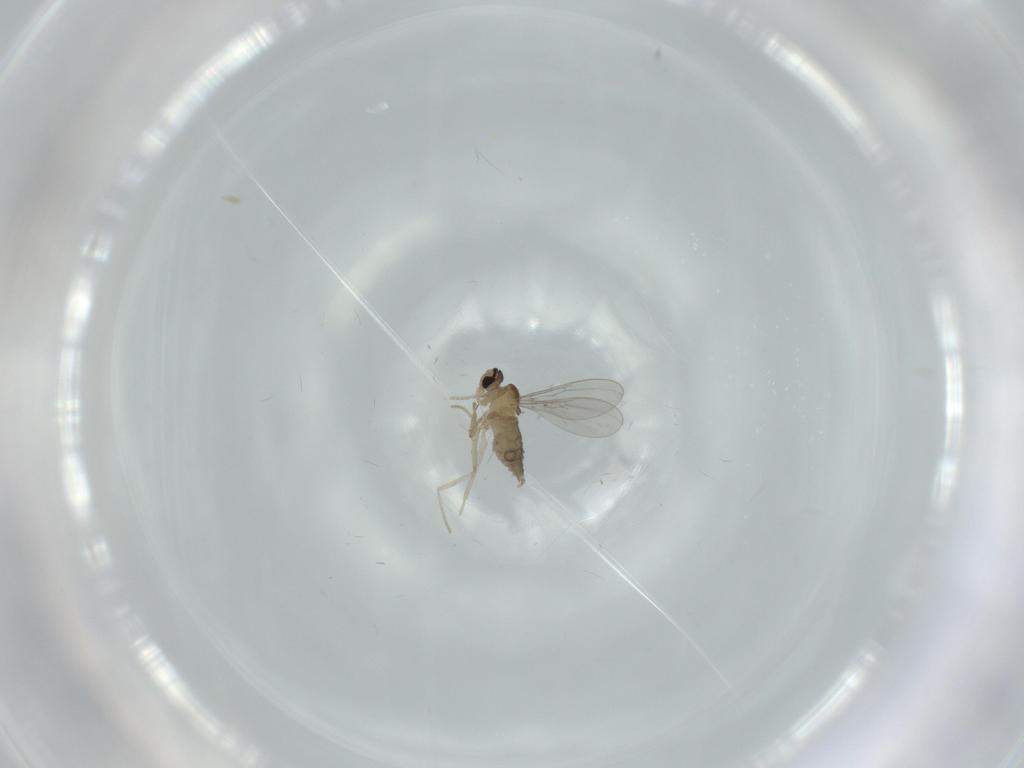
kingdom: Animalia
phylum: Arthropoda
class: Insecta
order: Diptera
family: Cecidomyiidae
